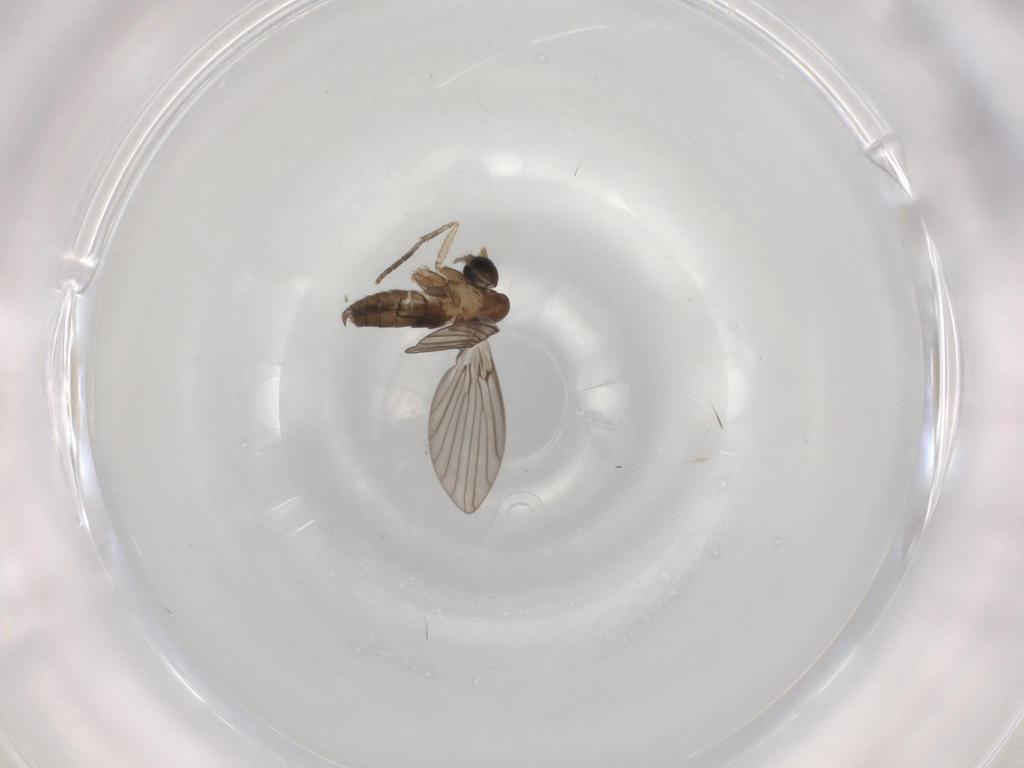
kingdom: Animalia
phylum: Arthropoda
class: Insecta
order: Diptera
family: Psychodidae
